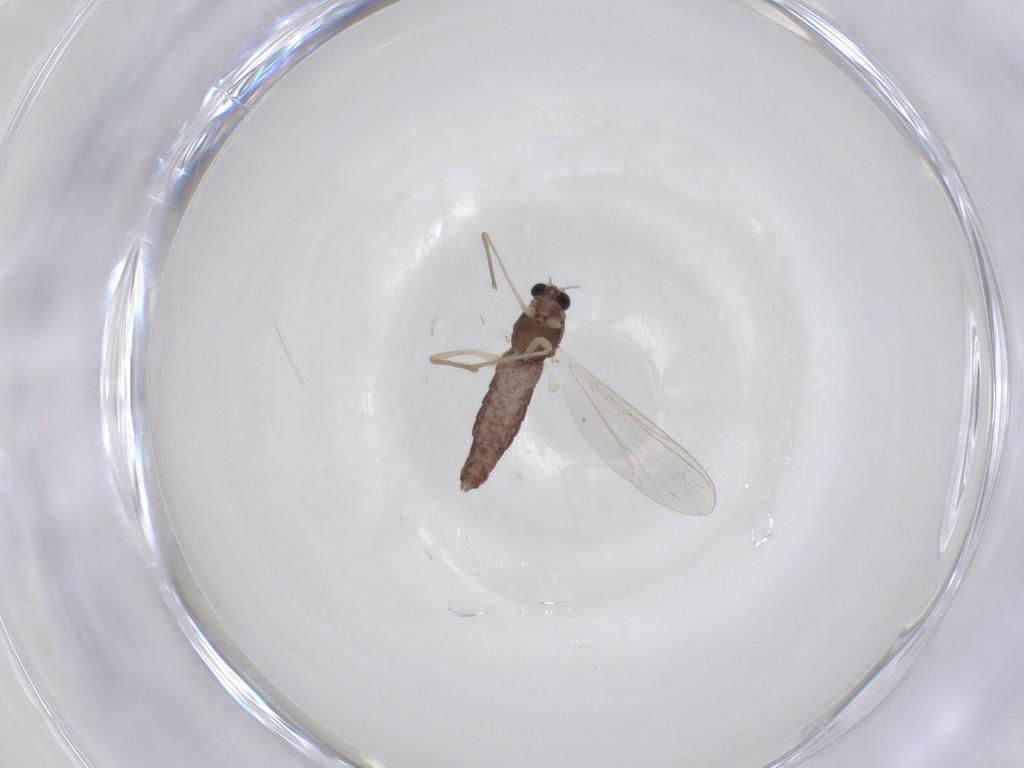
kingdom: Animalia
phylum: Arthropoda
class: Insecta
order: Diptera
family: Chironomidae
